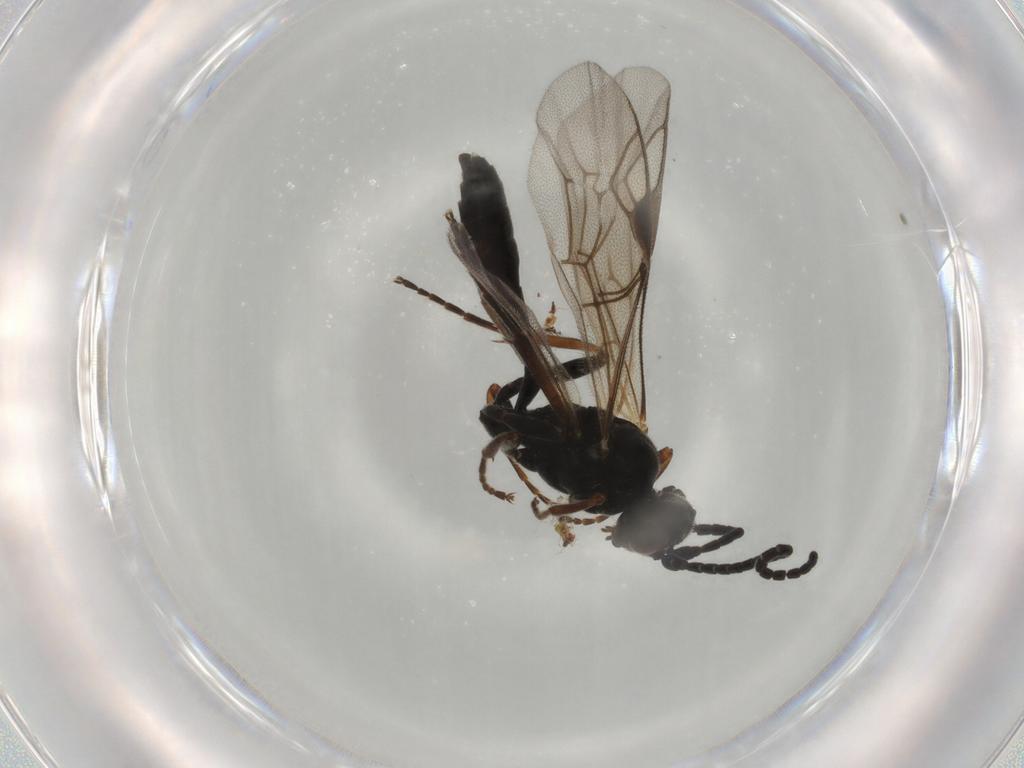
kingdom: Animalia
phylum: Arthropoda
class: Insecta
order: Hymenoptera
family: Ichneumonidae
